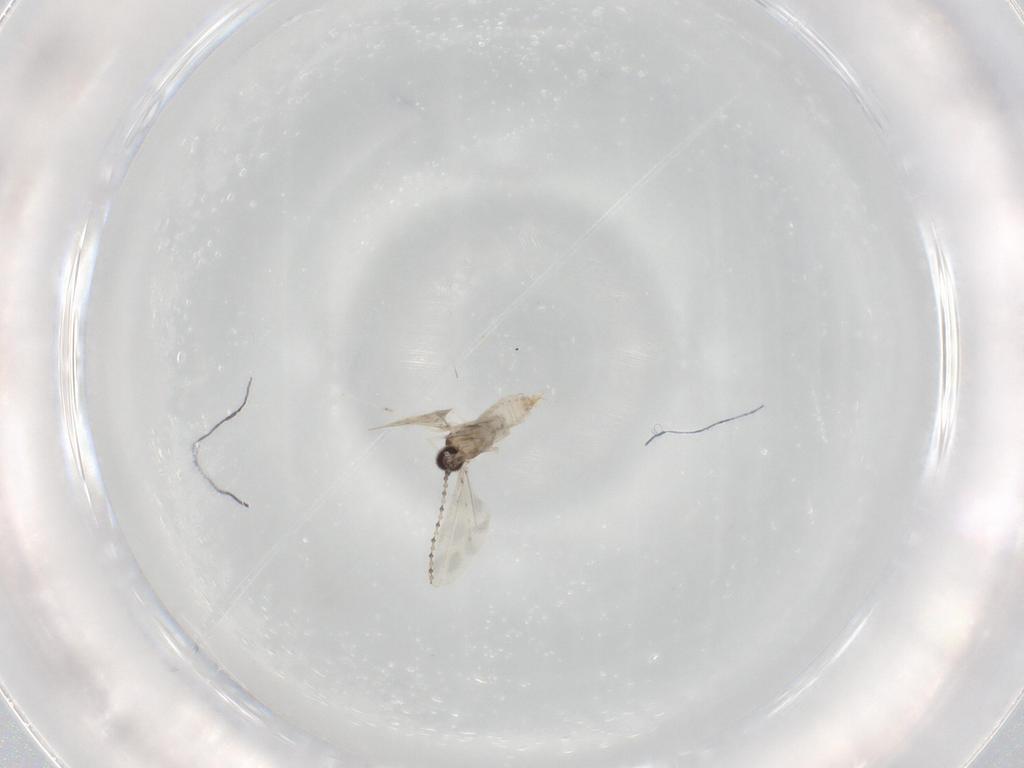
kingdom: Animalia
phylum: Arthropoda
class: Insecta
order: Diptera
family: Cecidomyiidae
